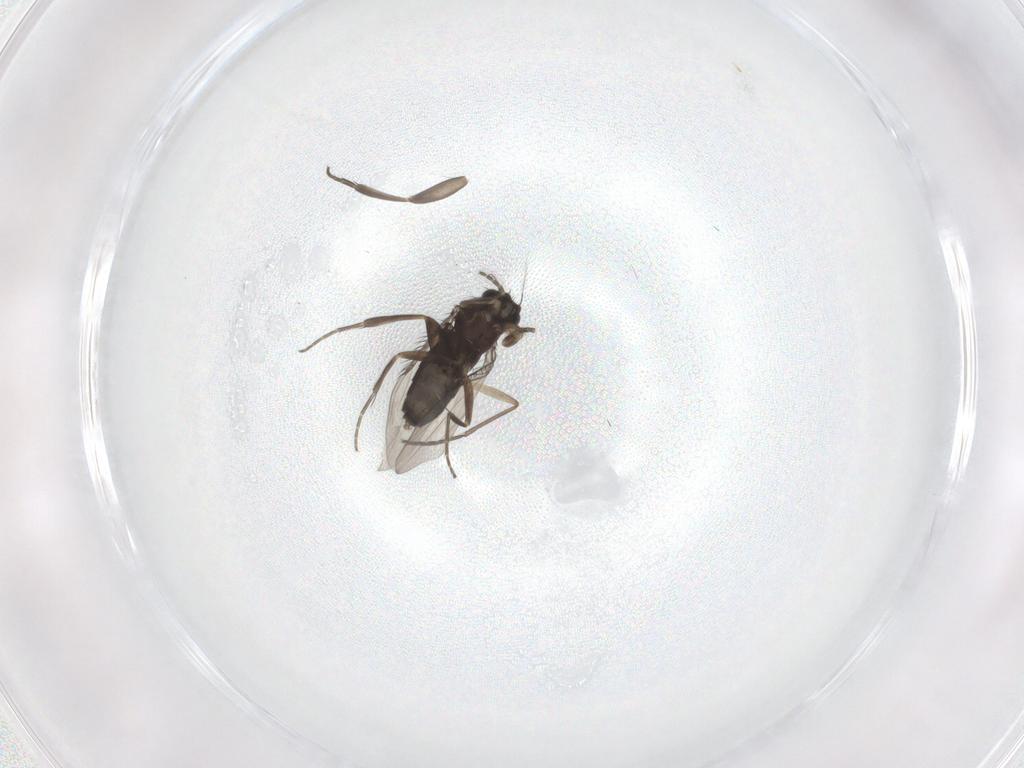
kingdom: Animalia
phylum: Arthropoda
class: Insecta
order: Diptera
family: Phoridae
